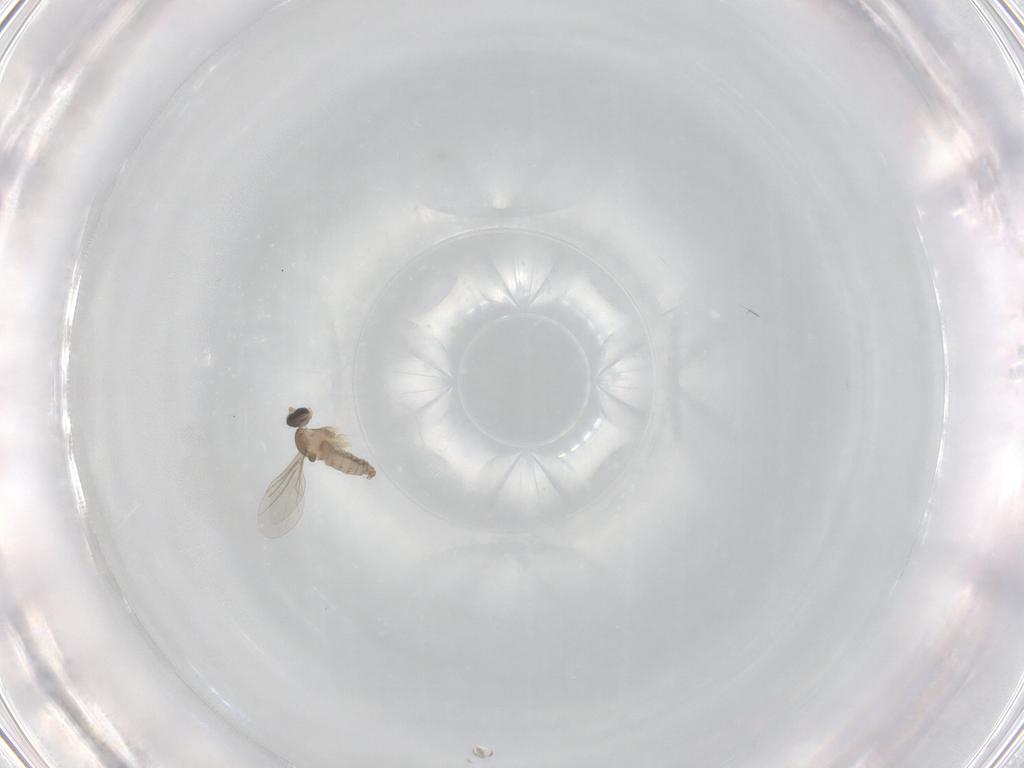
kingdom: Animalia
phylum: Arthropoda
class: Insecta
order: Diptera
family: Cecidomyiidae
